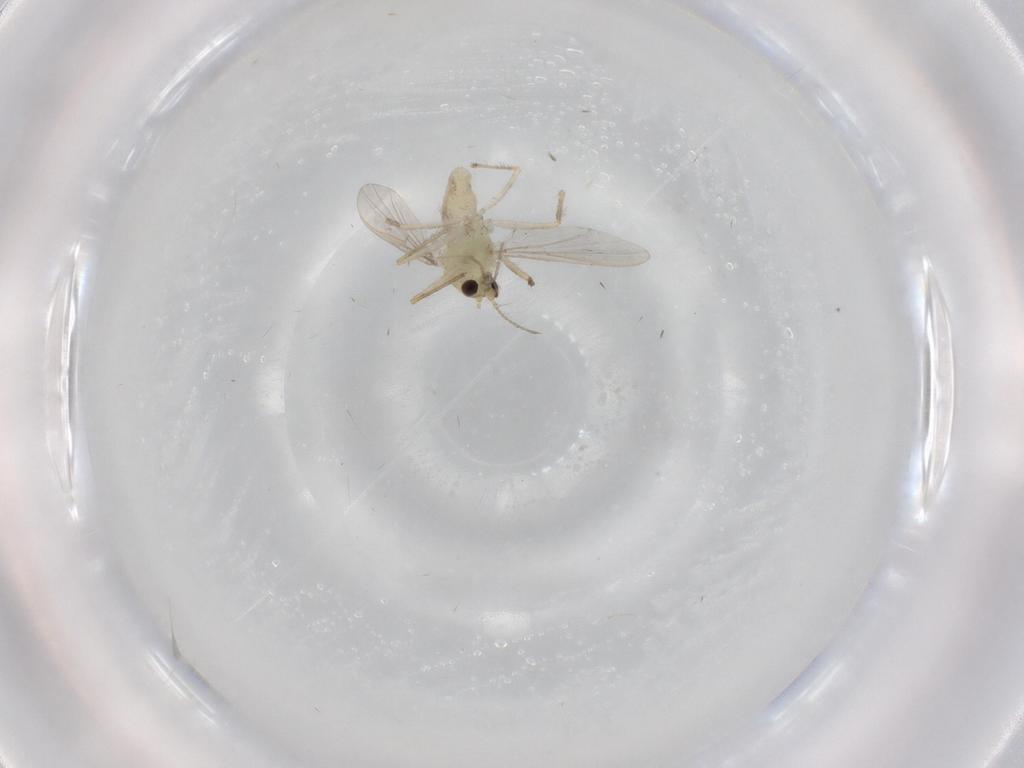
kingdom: Animalia
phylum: Arthropoda
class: Insecta
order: Diptera
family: Chironomidae
